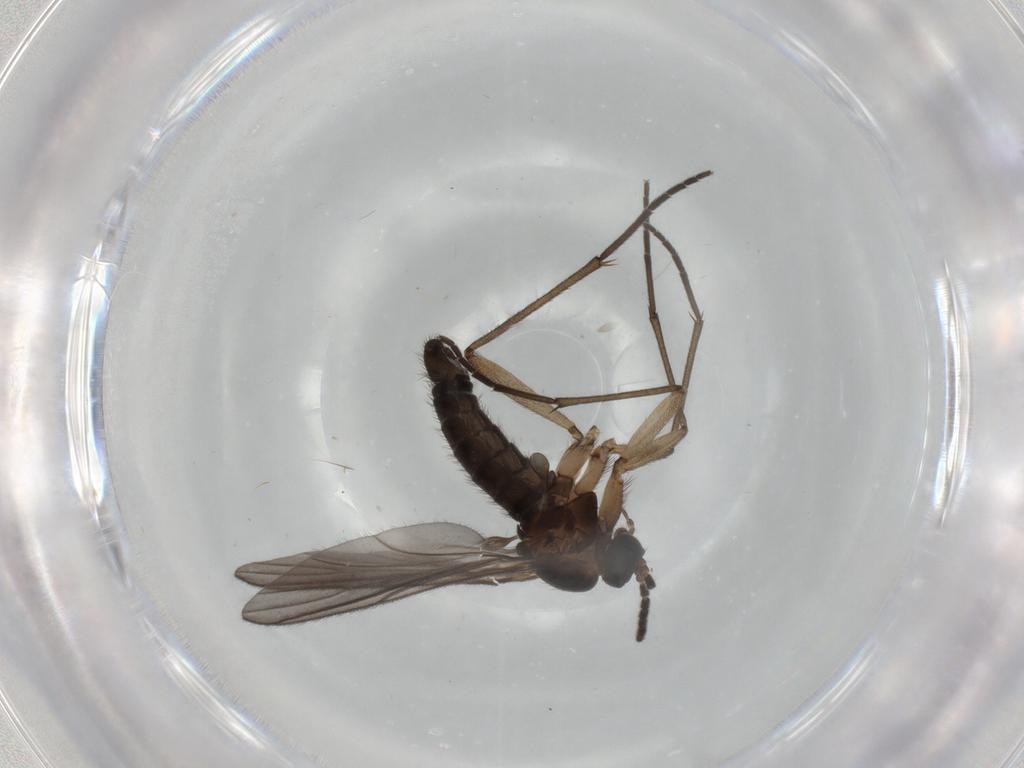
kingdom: Animalia
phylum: Arthropoda
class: Insecta
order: Diptera
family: Sciaridae
